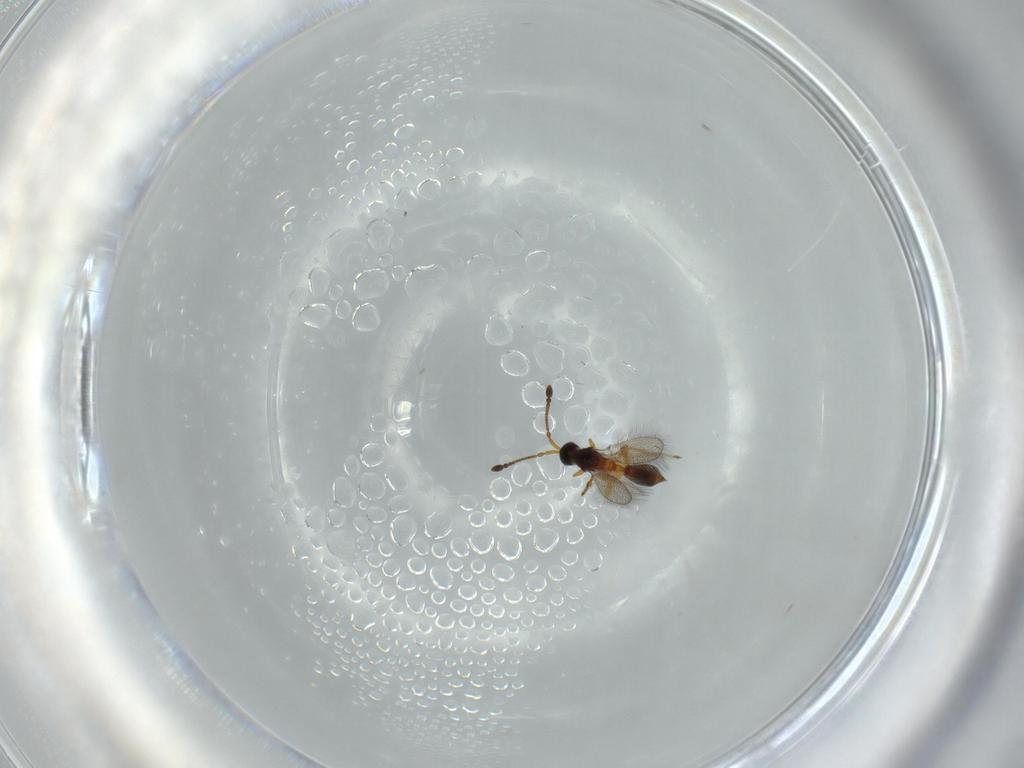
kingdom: Animalia
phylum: Arthropoda
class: Insecta
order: Hymenoptera
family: Diapriidae
